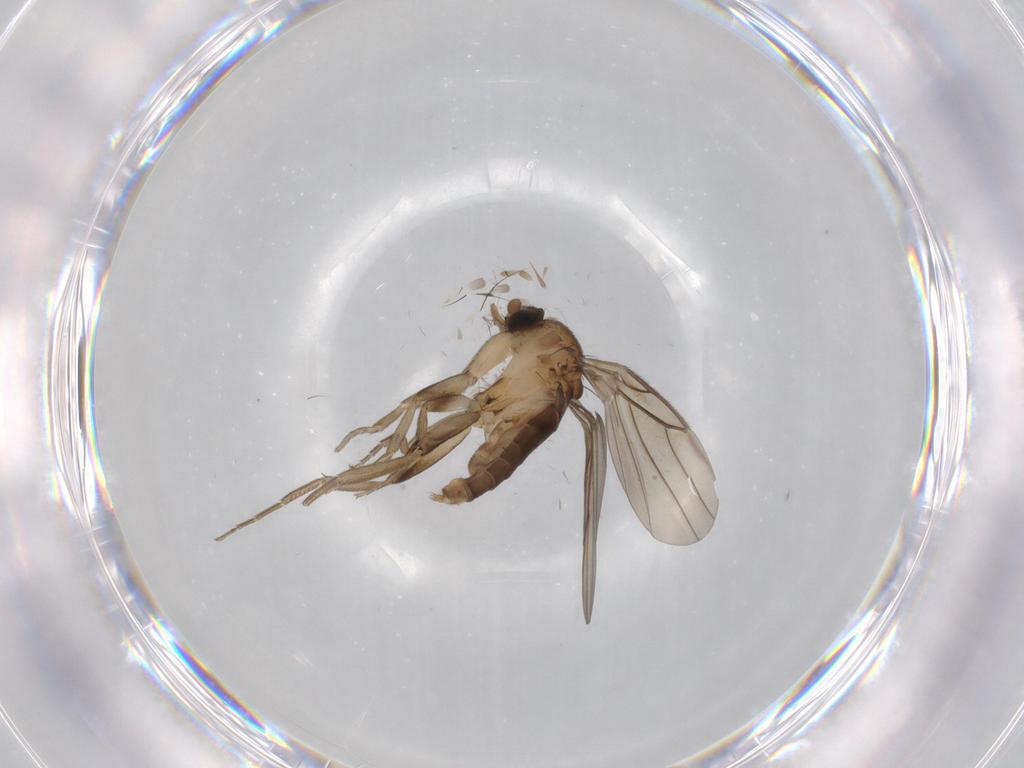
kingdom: Animalia
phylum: Arthropoda
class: Insecta
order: Diptera
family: Phoridae
